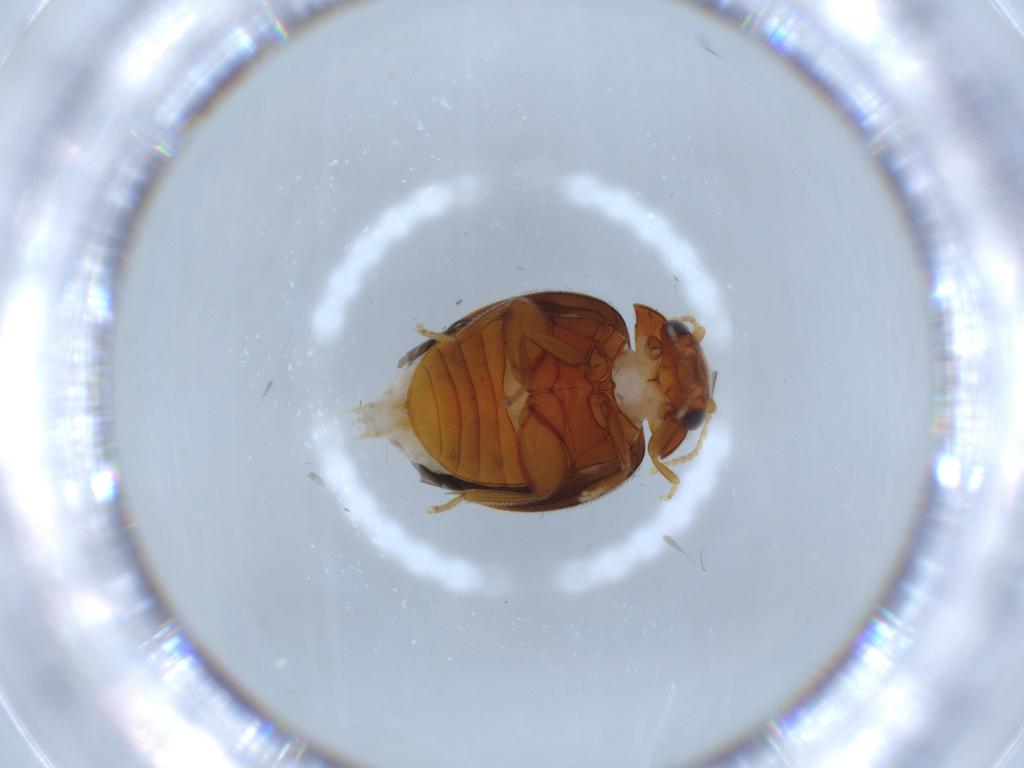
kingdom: Animalia
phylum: Arthropoda
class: Insecta
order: Coleoptera
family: Scirtidae
